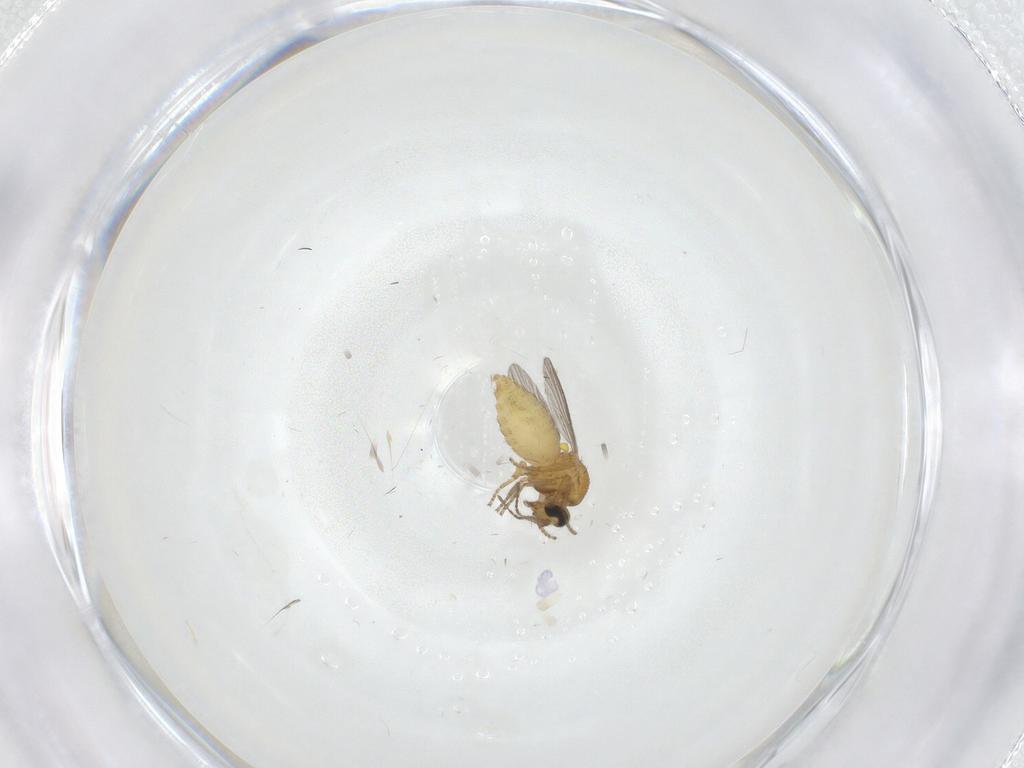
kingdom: Animalia
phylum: Arthropoda
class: Insecta
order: Diptera
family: Ceratopogonidae
